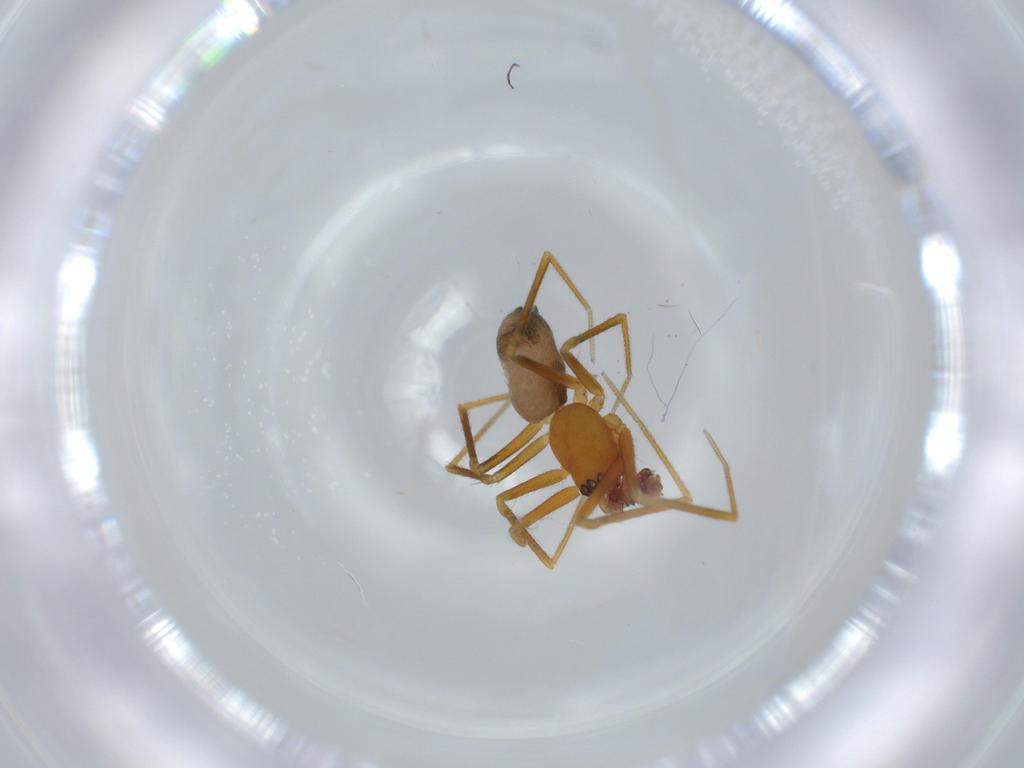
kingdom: Animalia
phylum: Arthropoda
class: Arachnida
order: Araneae
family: Linyphiidae
